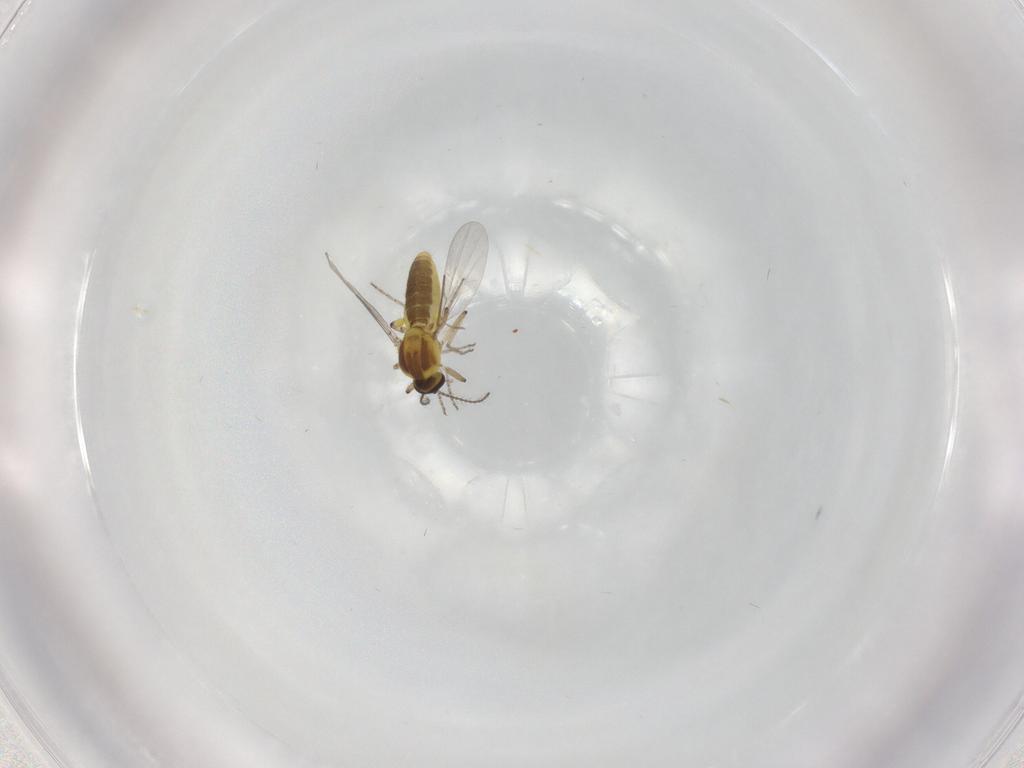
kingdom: Animalia
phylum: Arthropoda
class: Insecta
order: Diptera
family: Ceratopogonidae
